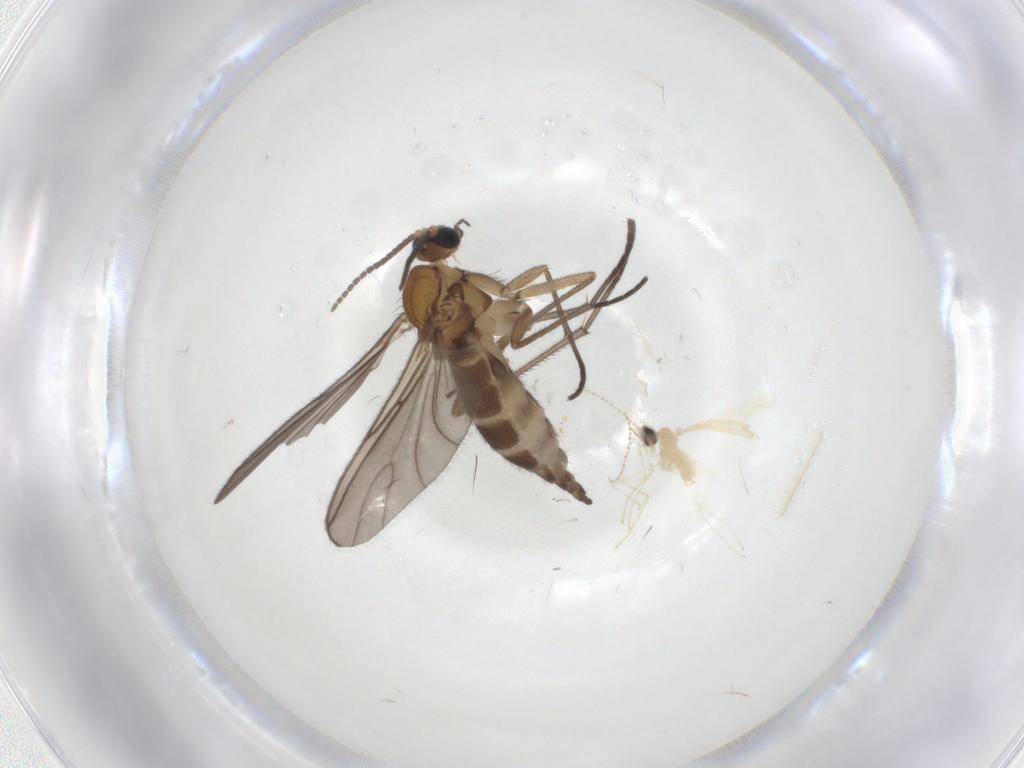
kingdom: Animalia
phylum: Arthropoda
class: Insecta
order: Diptera
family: Sciaridae
